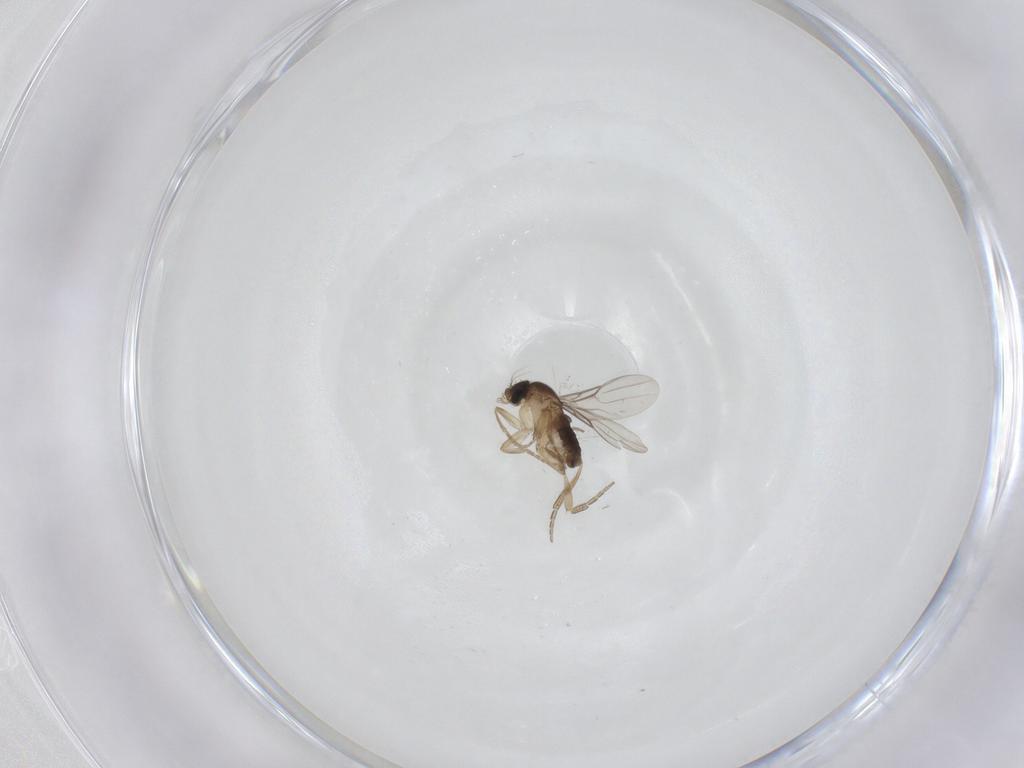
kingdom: Animalia
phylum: Arthropoda
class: Insecta
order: Diptera
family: Phoridae
